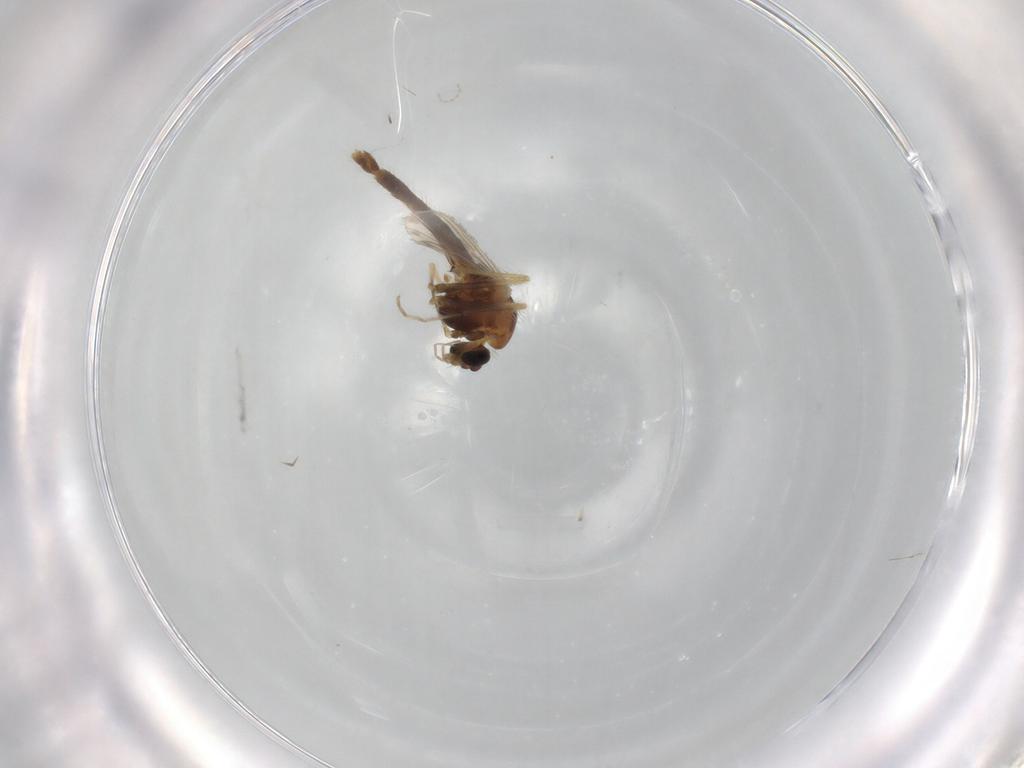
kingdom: Animalia
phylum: Arthropoda
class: Insecta
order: Diptera
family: Chironomidae
